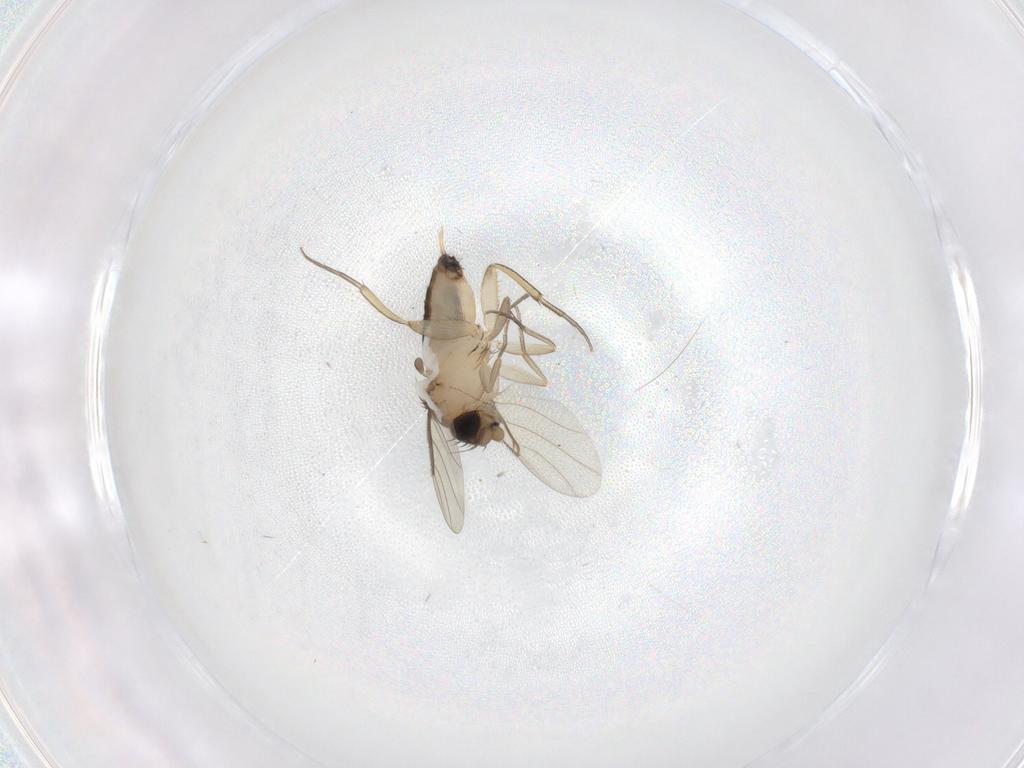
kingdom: Animalia
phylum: Arthropoda
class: Insecta
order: Diptera
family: Phoridae
